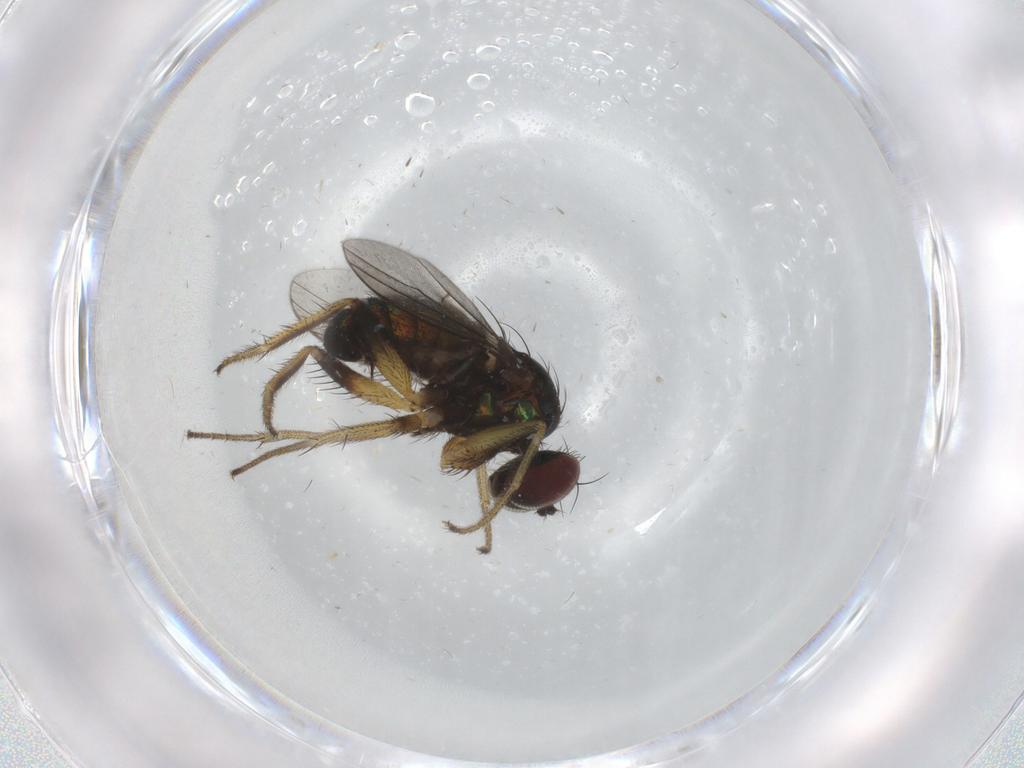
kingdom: Animalia
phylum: Arthropoda
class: Insecta
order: Diptera
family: Dolichopodidae
